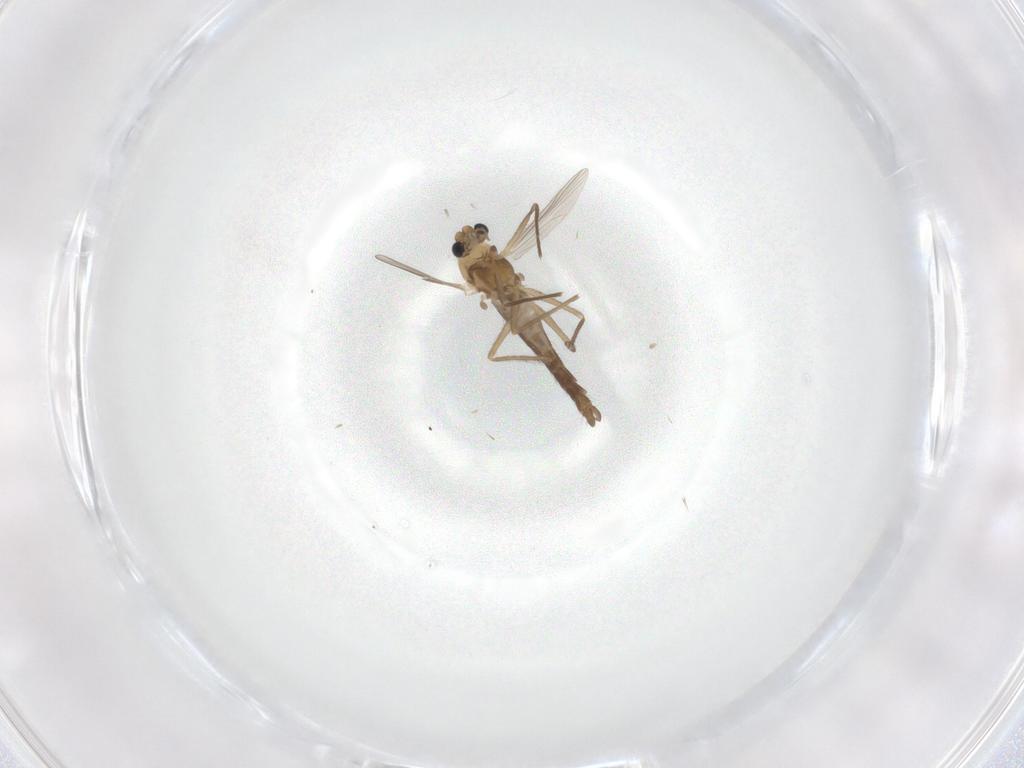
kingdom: Animalia
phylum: Arthropoda
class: Insecta
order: Diptera
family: Chironomidae
